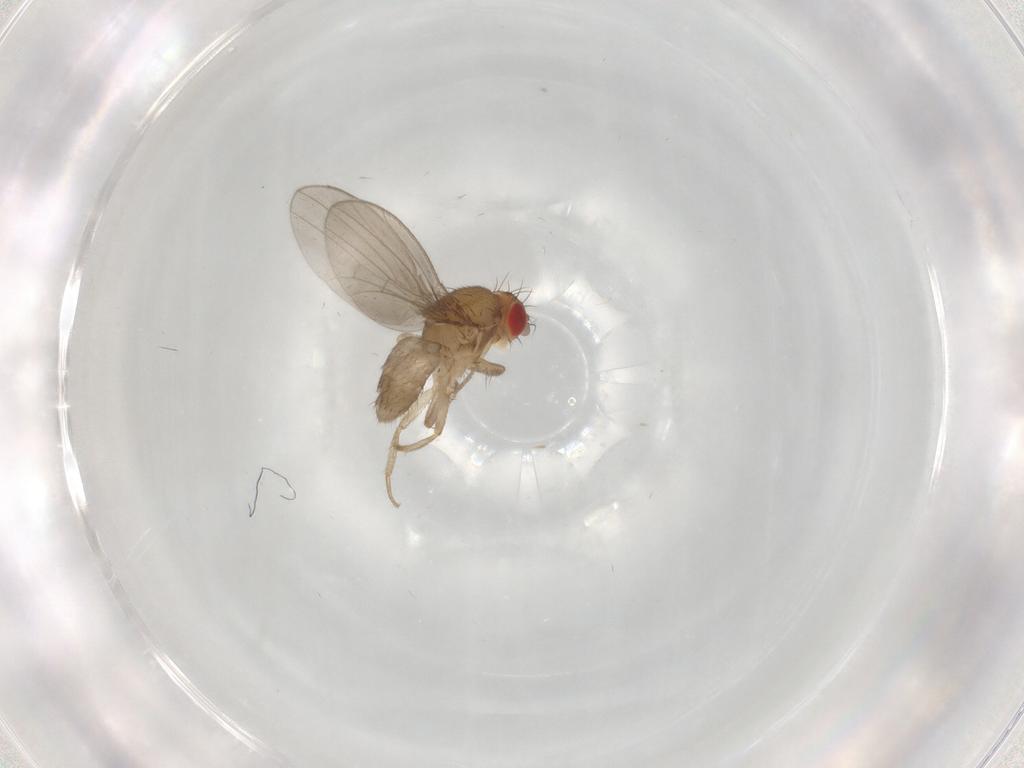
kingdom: Animalia
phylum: Arthropoda
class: Insecta
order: Diptera
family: Drosophilidae
